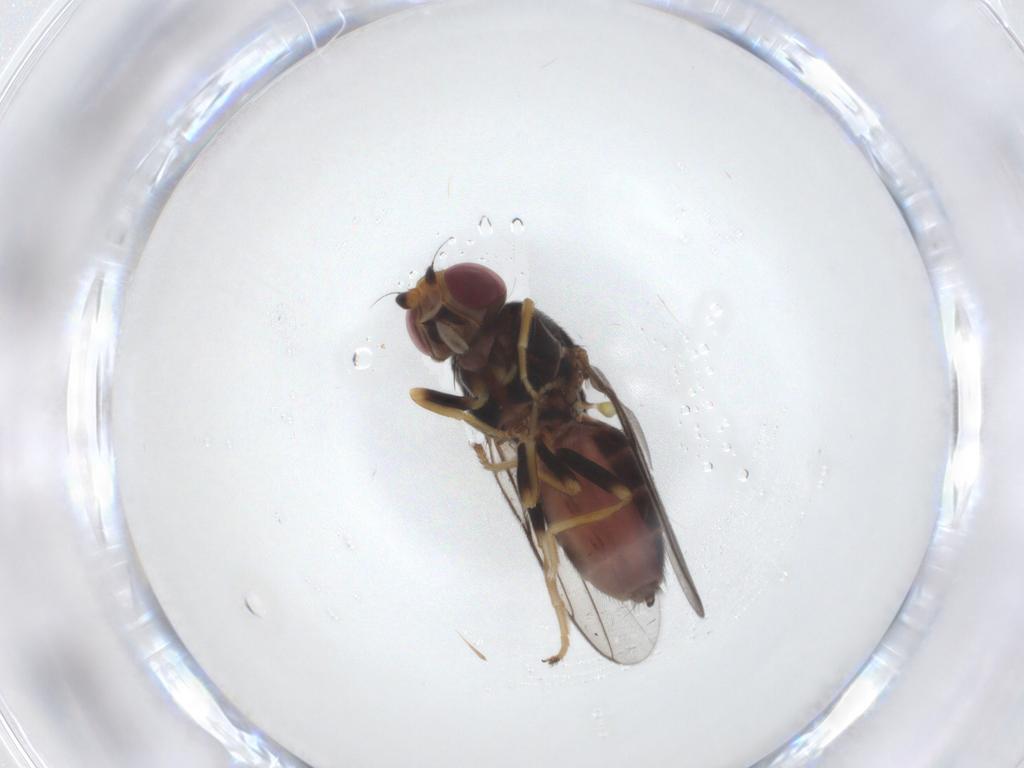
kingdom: Animalia
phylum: Arthropoda
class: Insecta
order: Diptera
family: Chloropidae
